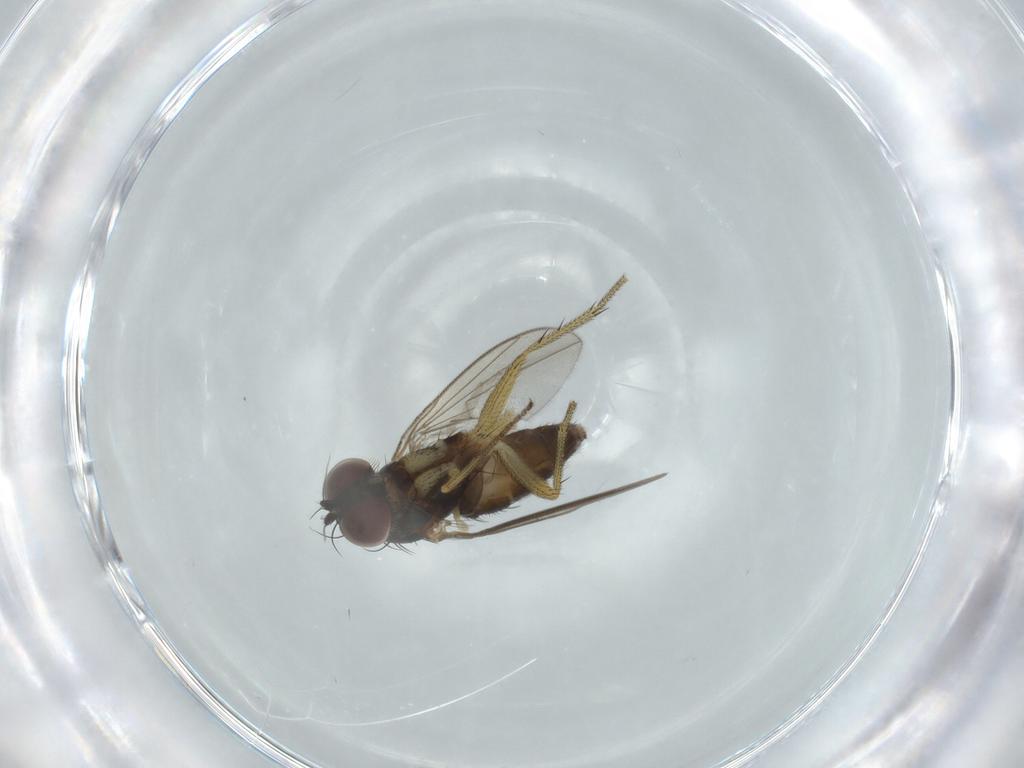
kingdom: Animalia
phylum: Arthropoda
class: Insecta
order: Diptera
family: Dolichopodidae
